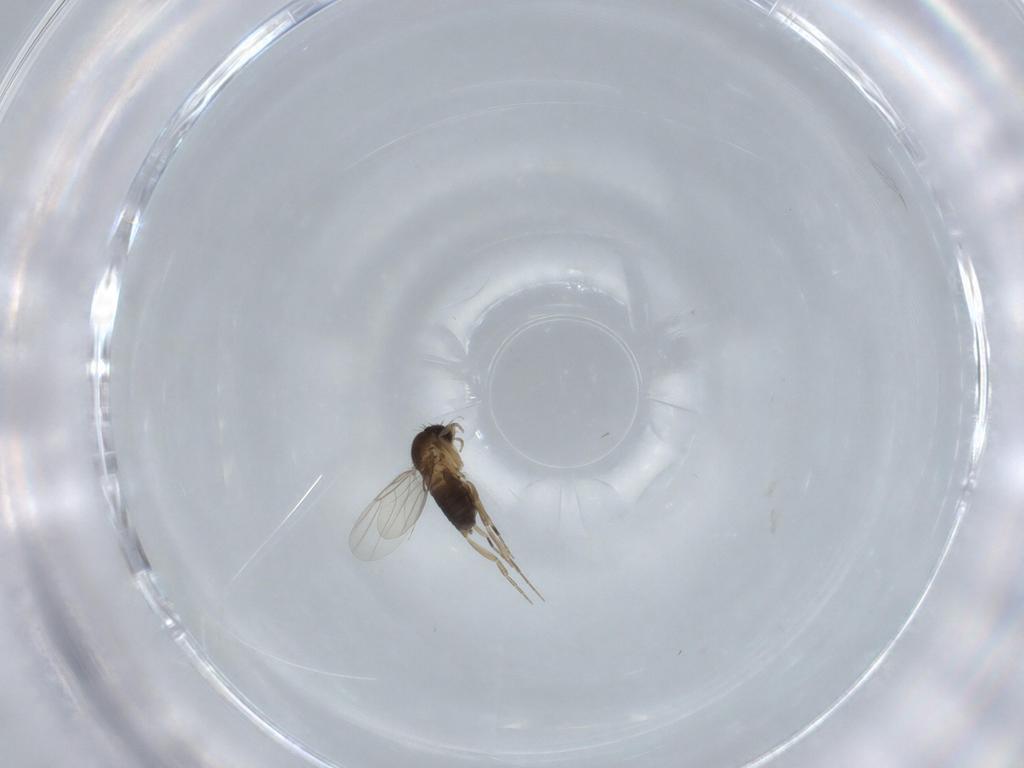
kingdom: Animalia
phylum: Arthropoda
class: Insecta
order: Diptera
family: Phoridae
